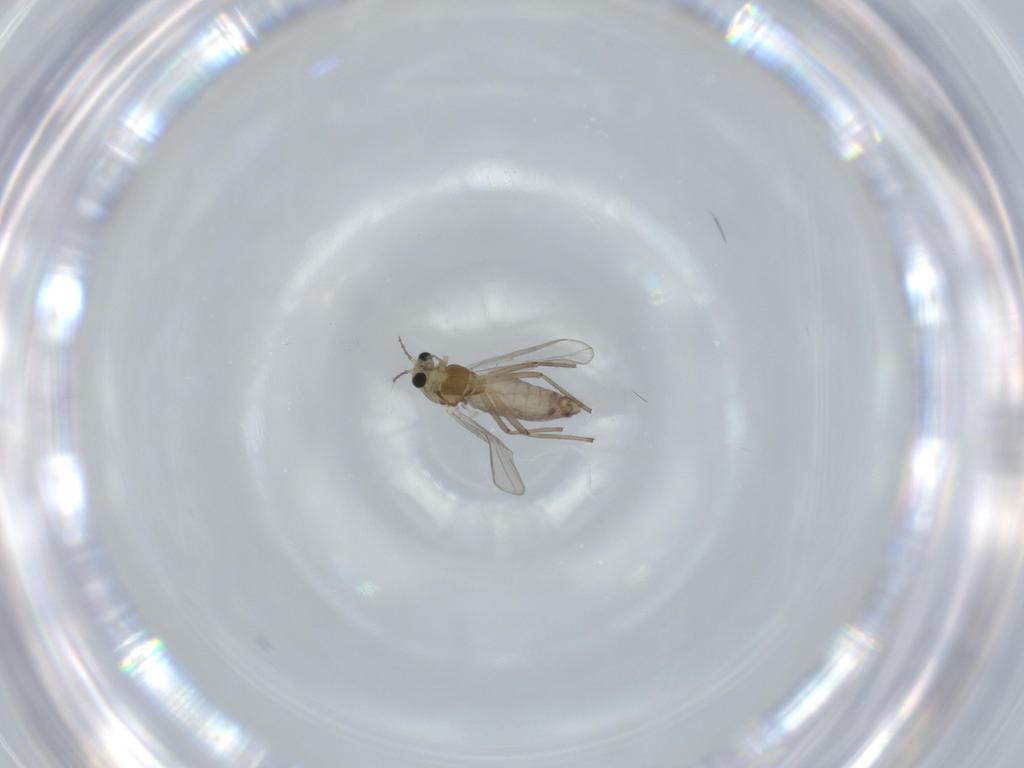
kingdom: Animalia
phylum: Arthropoda
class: Insecta
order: Diptera
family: Chironomidae
